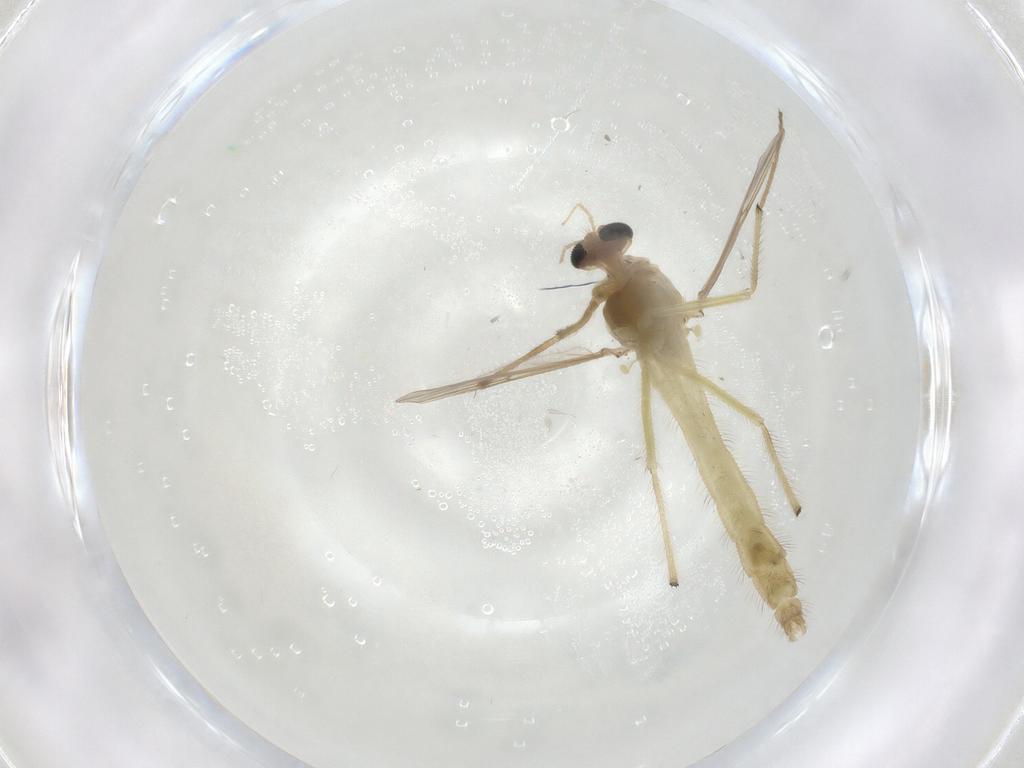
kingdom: Animalia
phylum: Arthropoda
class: Insecta
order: Diptera
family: Chironomidae
